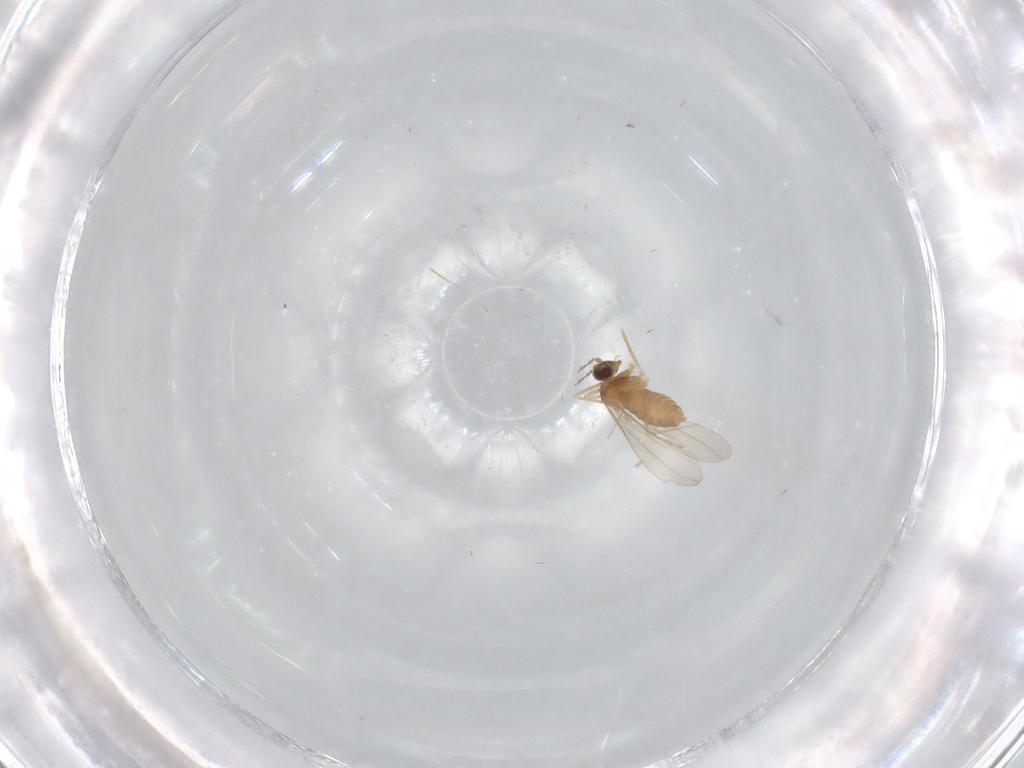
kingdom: Animalia
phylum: Arthropoda
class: Insecta
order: Diptera
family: Cecidomyiidae
